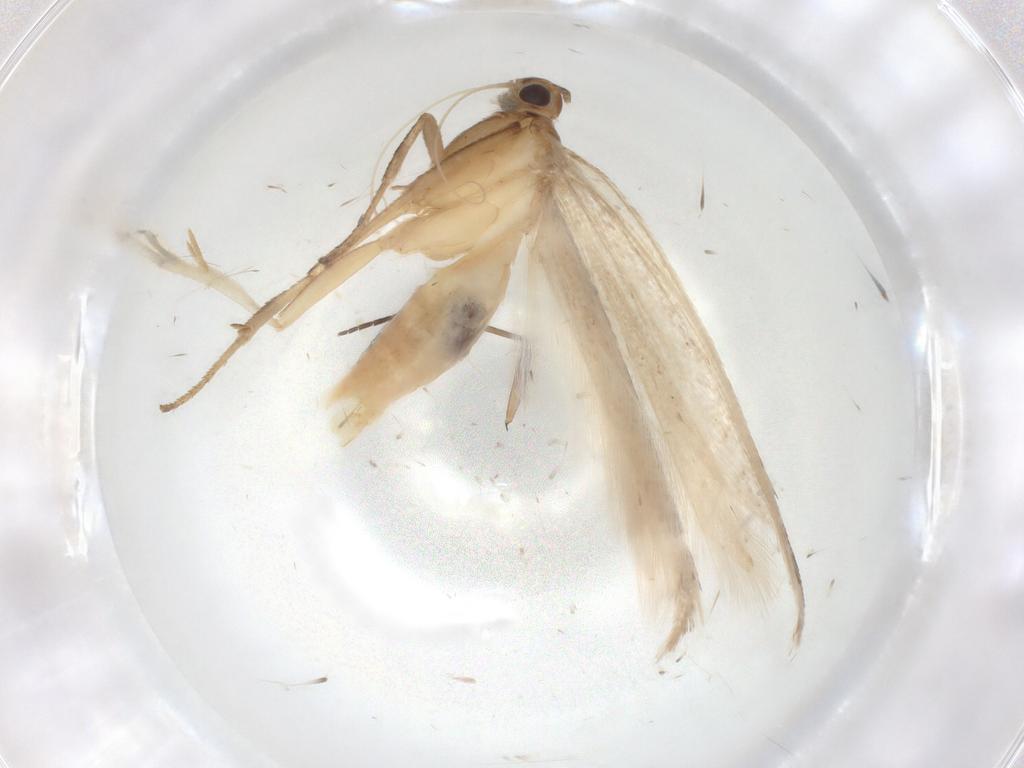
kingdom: Animalia
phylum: Arthropoda
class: Insecta
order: Lepidoptera
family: Gelechiidae
